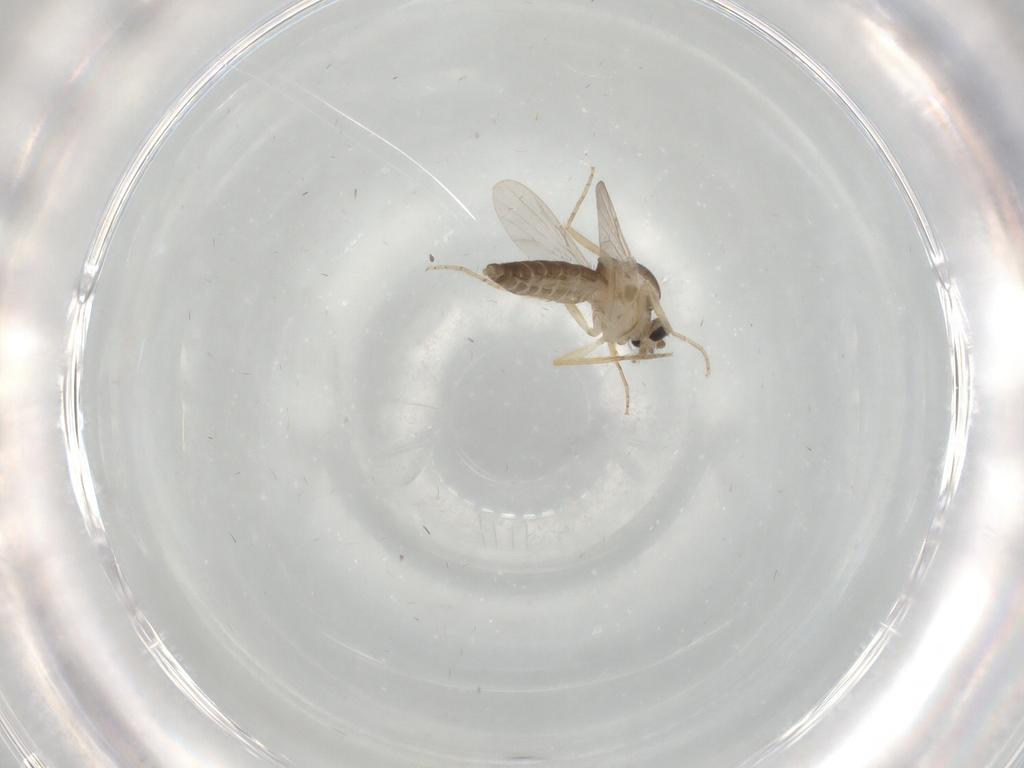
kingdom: Animalia
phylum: Arthropoda
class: Insecta
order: Diptera
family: Ceratopogonidae
